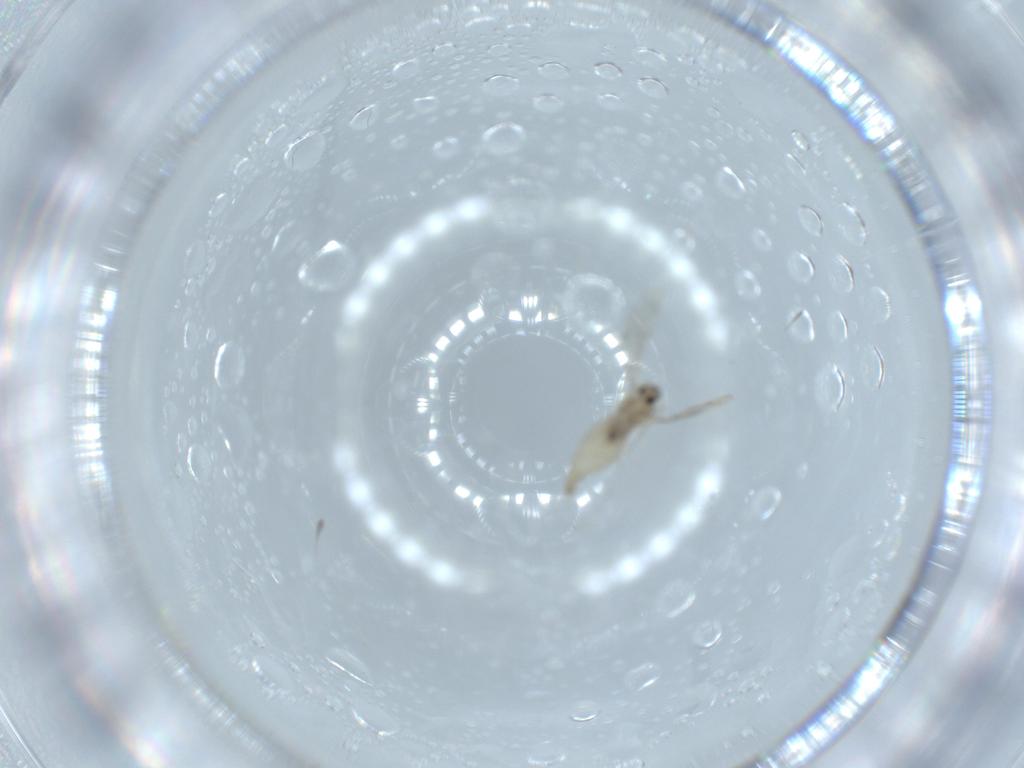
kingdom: Animalia
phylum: Arthropoda
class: Insecta
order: Diptera
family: Cecidomyiidae
